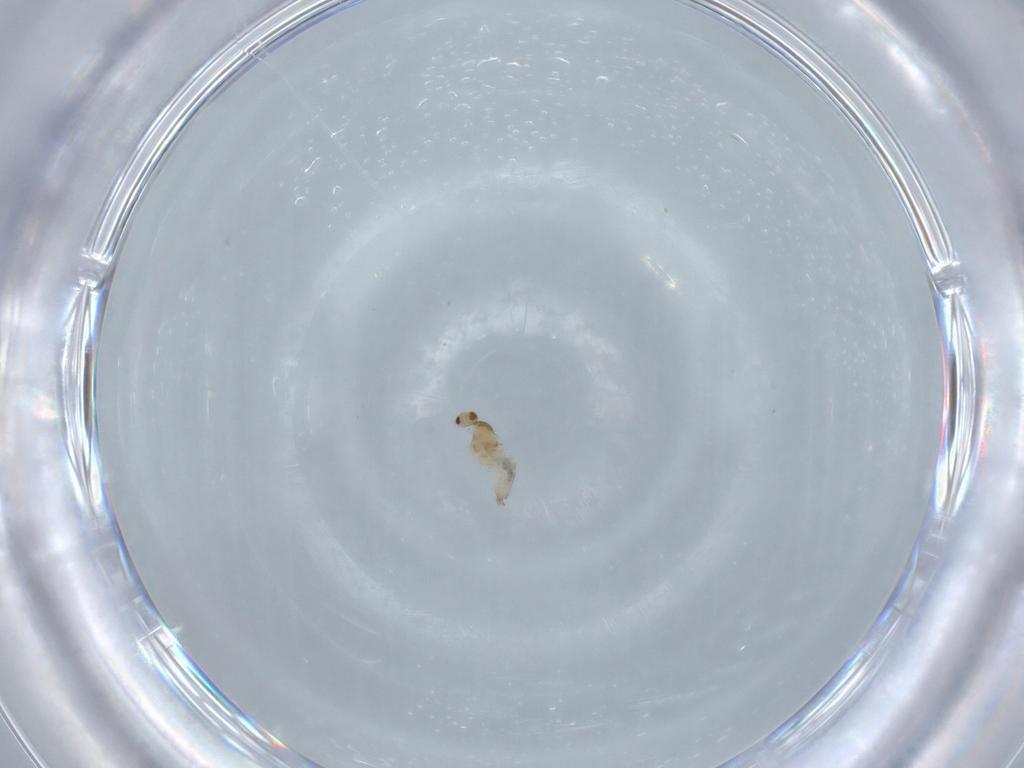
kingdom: Animalia
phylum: Arthropoda
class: Insecta
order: Diptera
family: Cecidomyiidae
